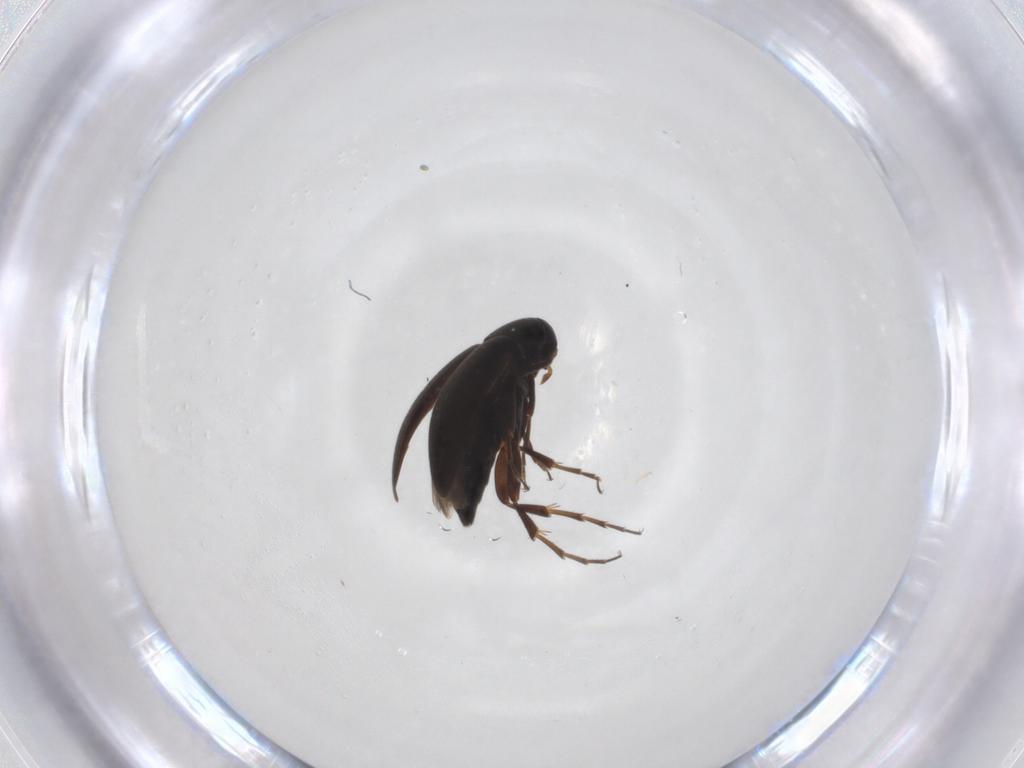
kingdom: Animalia
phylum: Arthropoda
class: Insecta
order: Coleoptera
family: Scraptiidae
